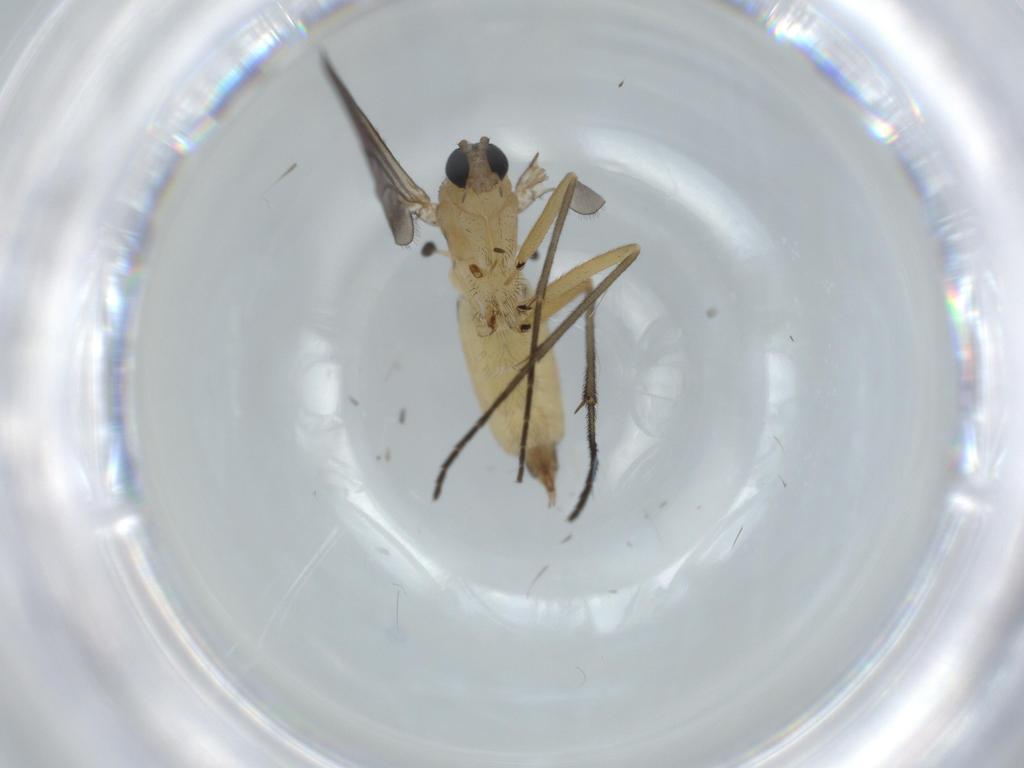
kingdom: Animalia
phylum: Arthropoda
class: Insecta
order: Diptera
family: Sciaridae
